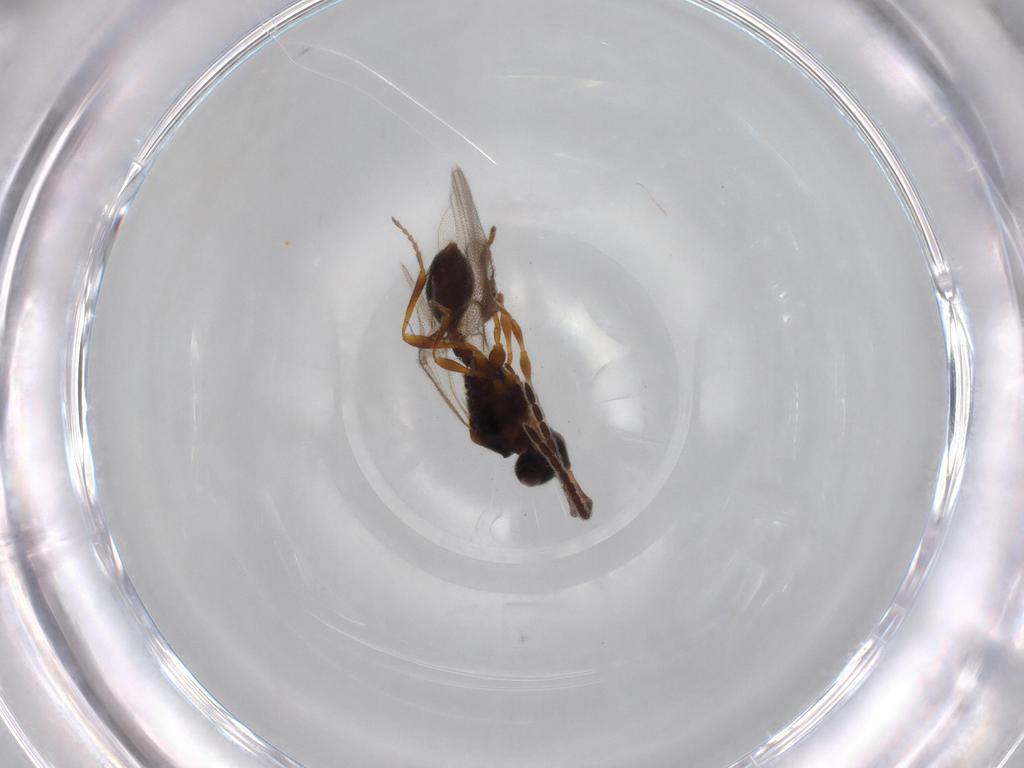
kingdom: Animalia
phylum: Arthropoda
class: Insecta
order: Hymenoptera
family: Diapriidae
